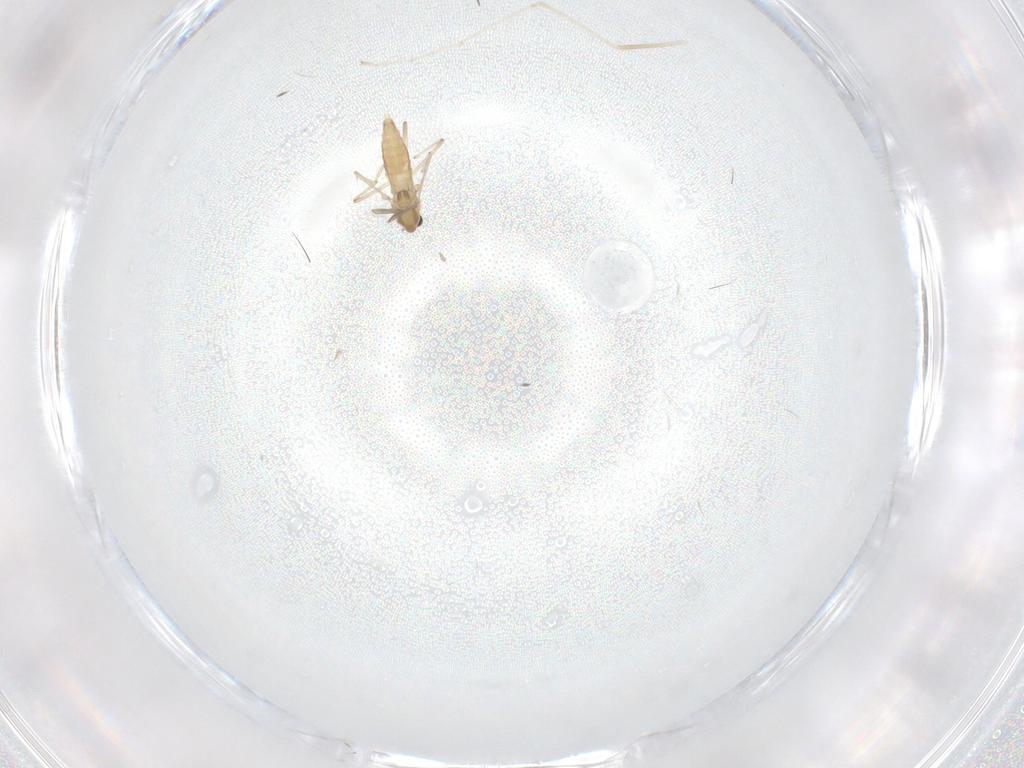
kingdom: Animalia
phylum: Arthropoda
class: Insecta
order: Diptera
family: Chironomidae
